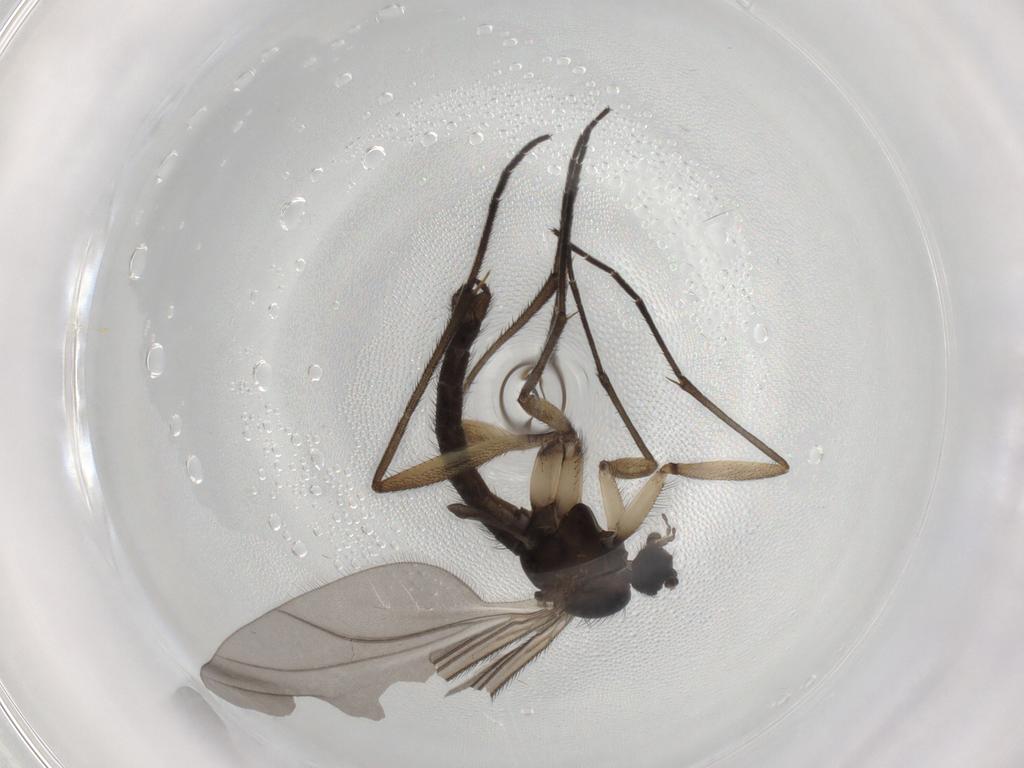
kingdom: Animalia
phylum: Arthropoda
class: Insecta
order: Diptera
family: Sciaridae
